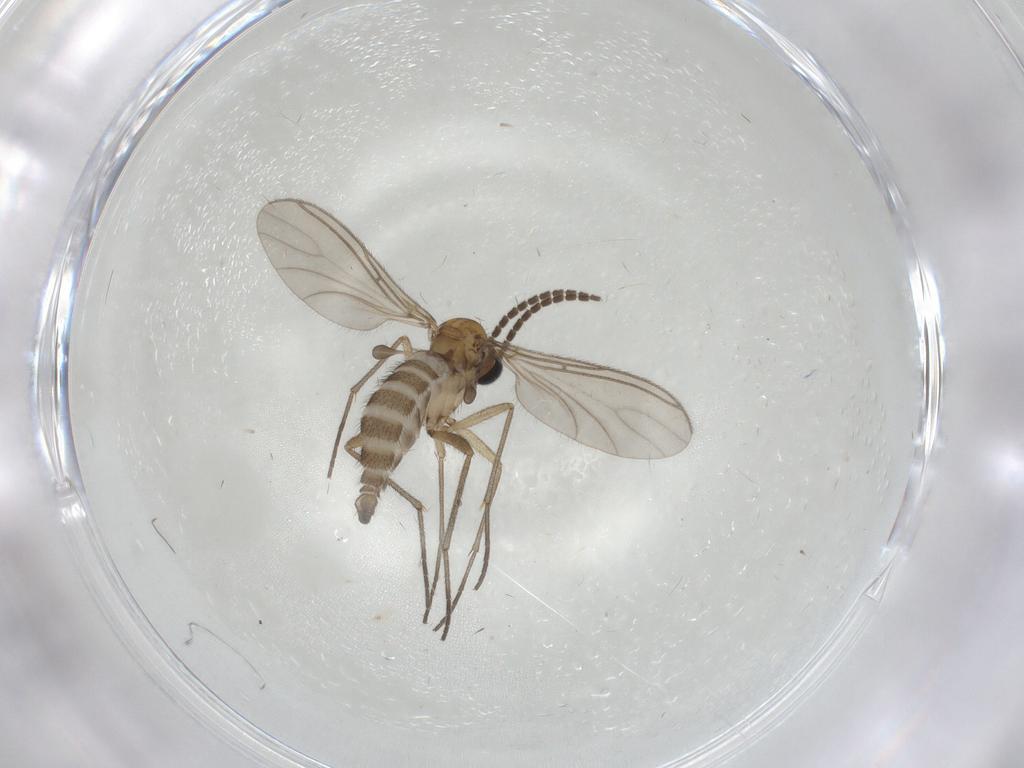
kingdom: Animalia
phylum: Arthropoda
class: Insecta
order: Diptera
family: Sciaridae
